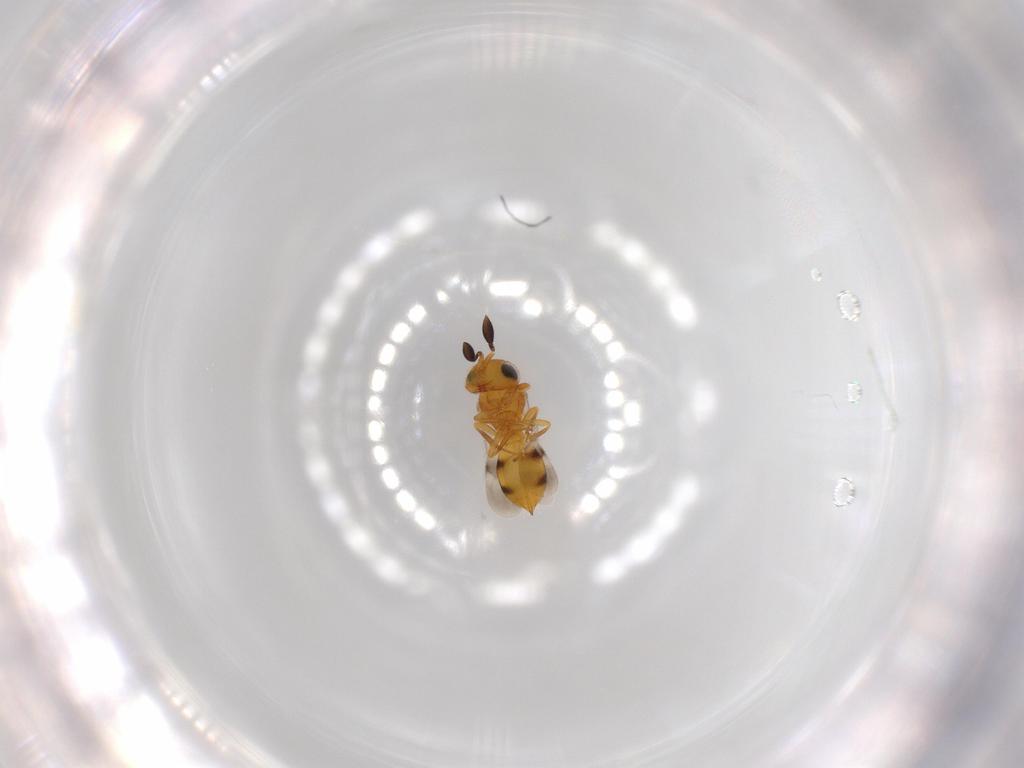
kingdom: Animalia
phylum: Arthropoda
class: Insecta
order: Hymenoptera
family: Scelionidae
